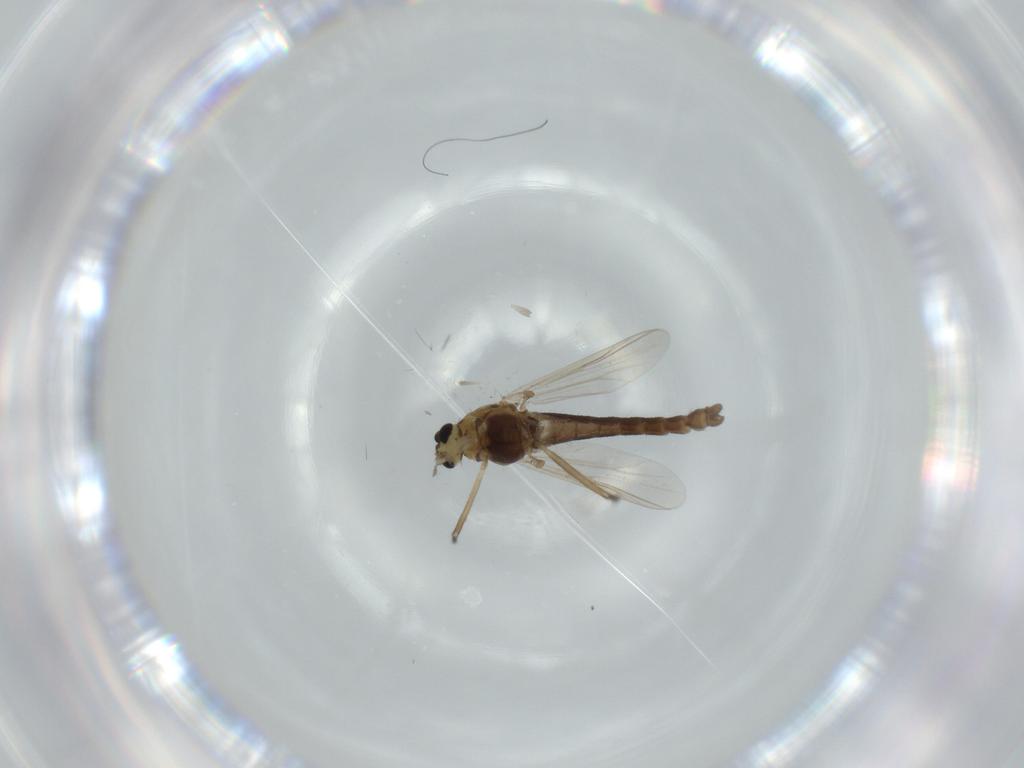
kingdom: Animalia
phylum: Arthropoda
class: Insecta
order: Diptera
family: Chironomidae
